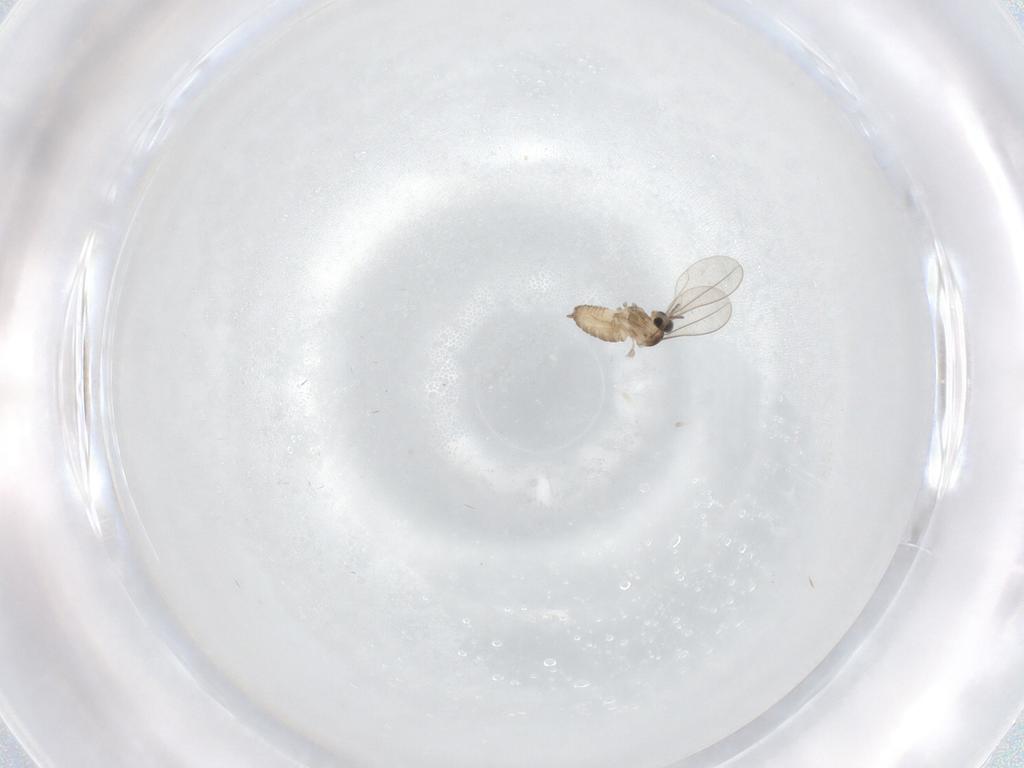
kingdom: Animalia
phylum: Arthropoda
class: Insecta
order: Diptera
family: Cecidomyiidae
